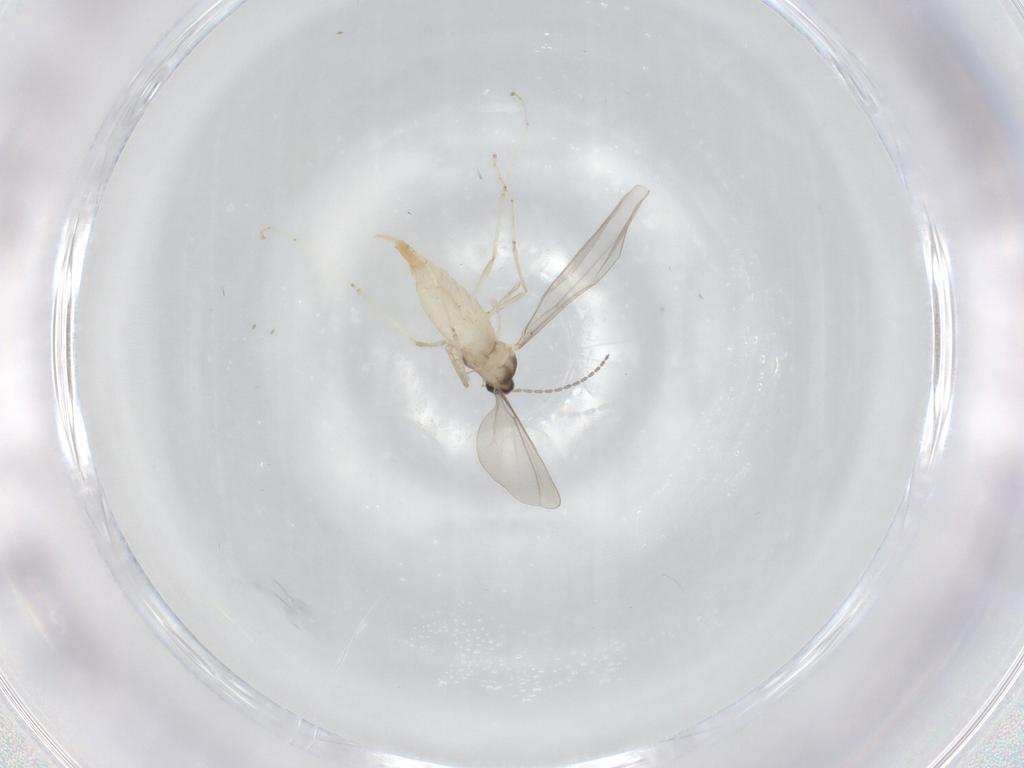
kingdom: Animalia
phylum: Arthropoda
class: Insecta
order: Diptera
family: Cecidomyiidae
